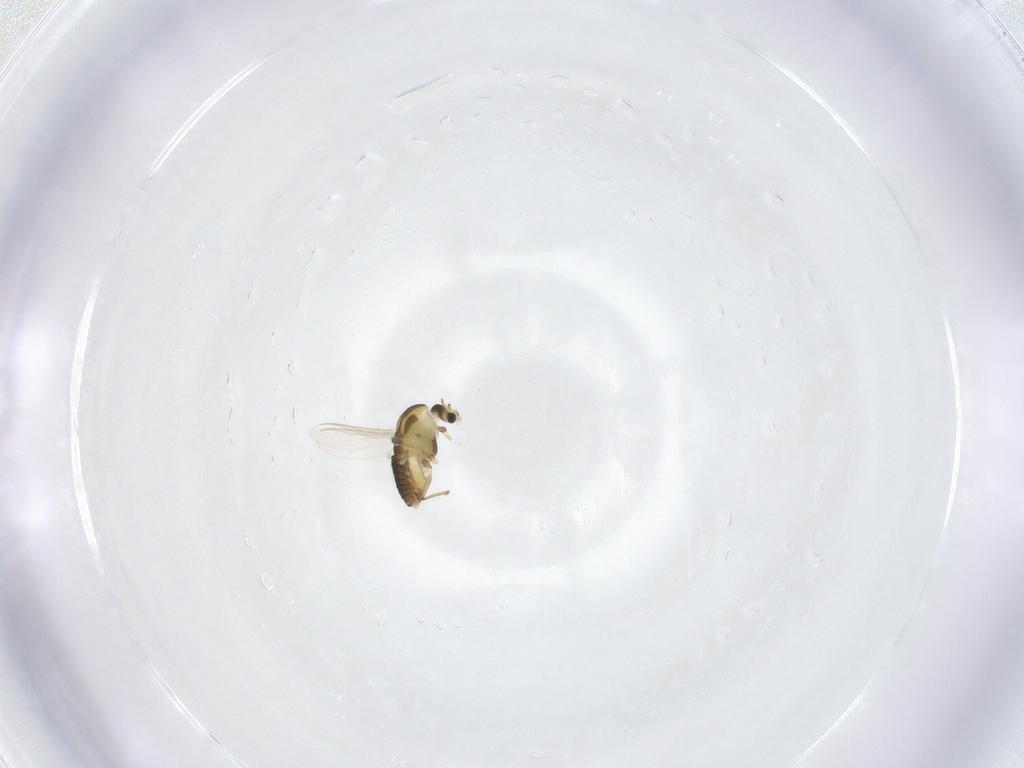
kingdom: Animalia
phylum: Arthropoda
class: Insecta
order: Diptera
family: Chironomidae
